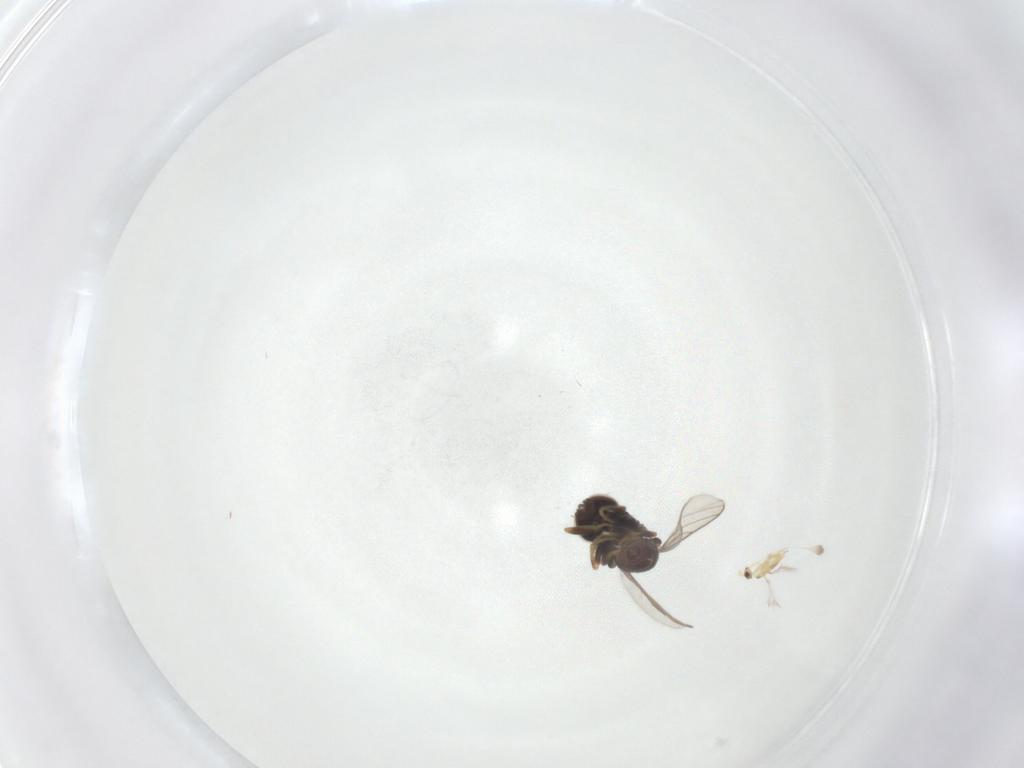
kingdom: Animalia
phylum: Arthropoda
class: Insecta
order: Diptera
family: Chloropidae
